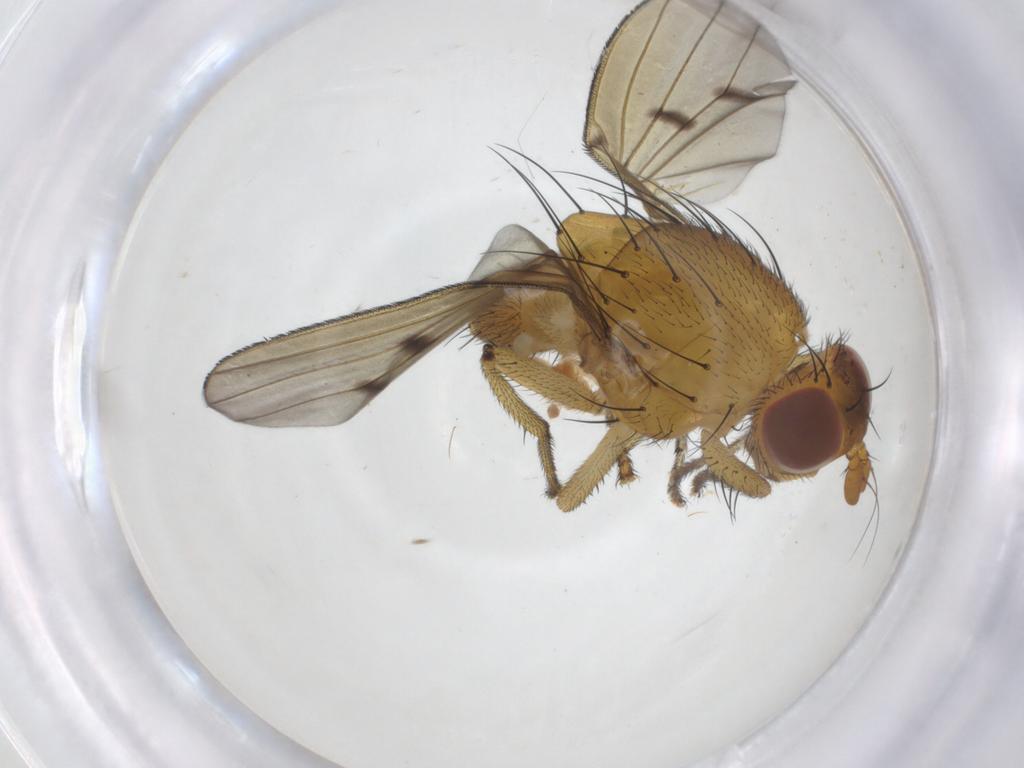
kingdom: Animalia
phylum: Arthropoda
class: Insecta
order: Diptera
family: Lauxaniidae
